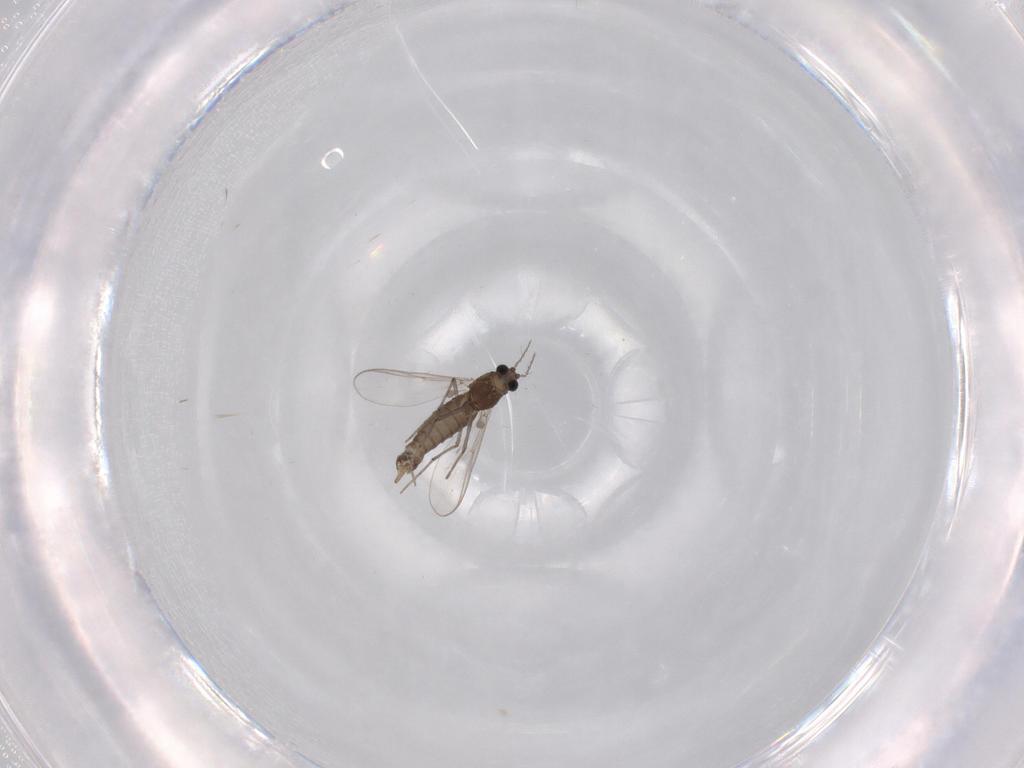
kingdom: Animalia
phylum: Arthropoda
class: Insecta
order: Diptera
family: Chironomidae
